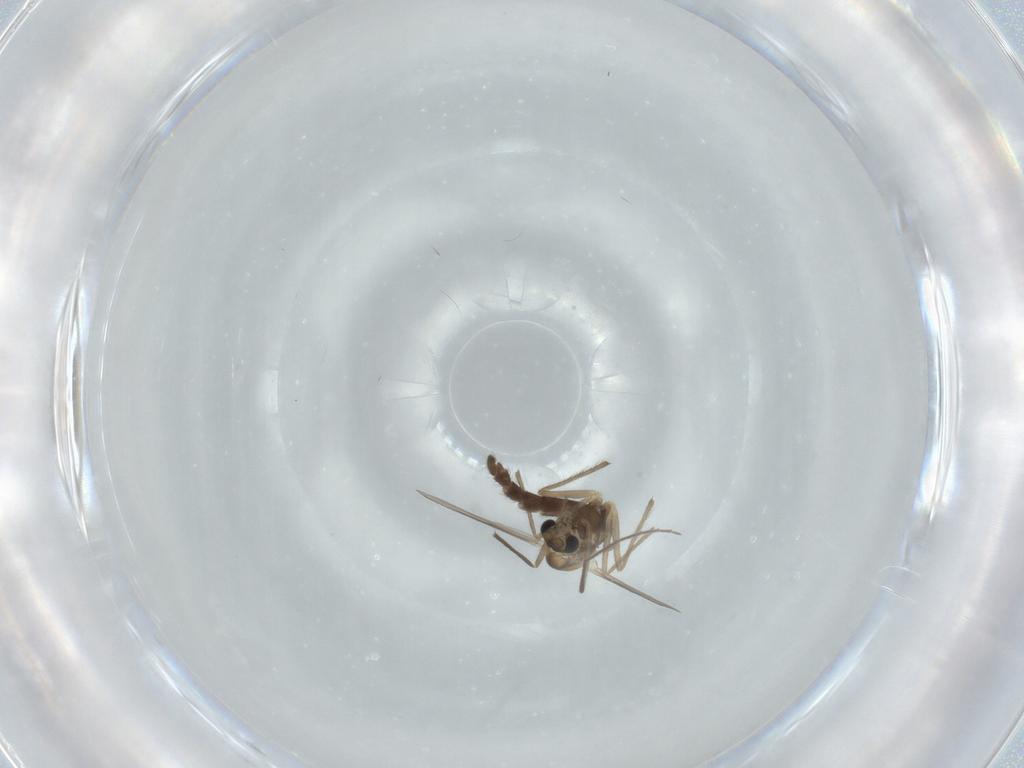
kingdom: Animalia
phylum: Arthropoda
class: Insecta
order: Diptera
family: Chironomidae
